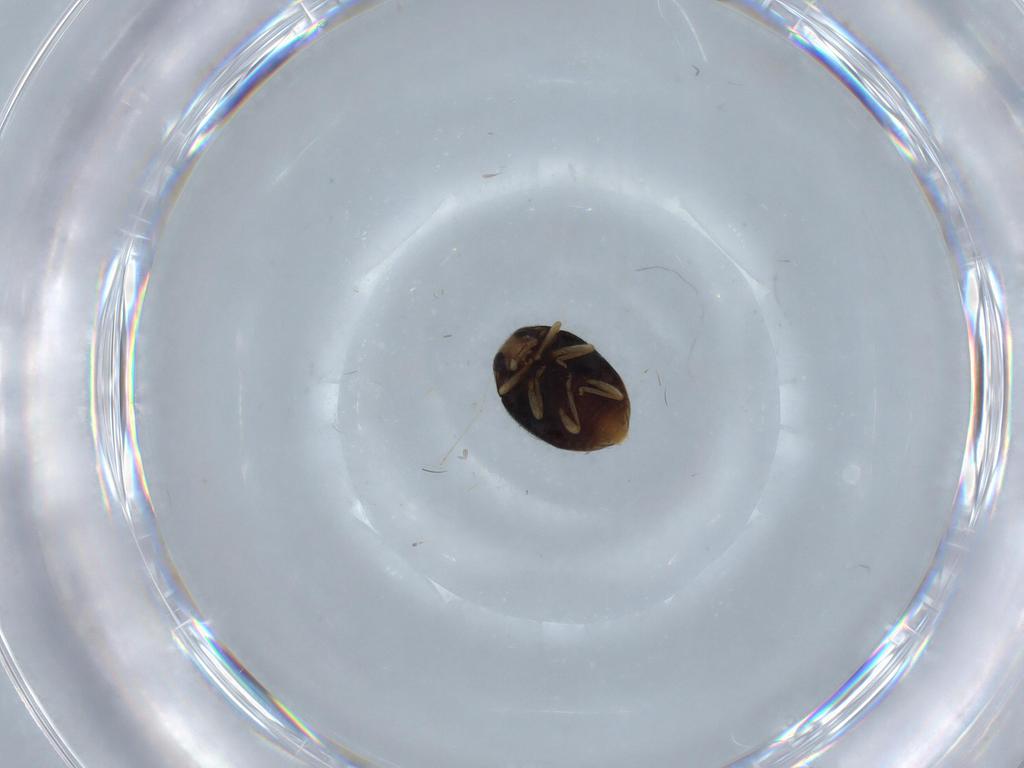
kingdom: Animalia
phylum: Arthropoda
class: Insecta
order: Coleoptera
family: Coccinellidae
